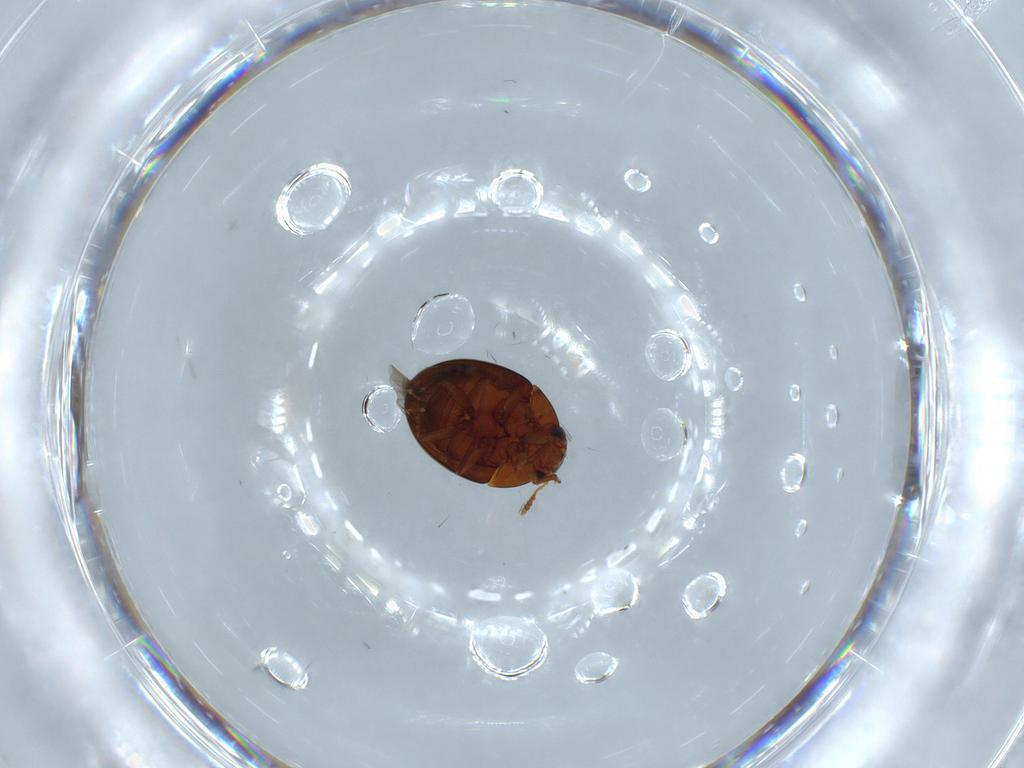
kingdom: Animalia
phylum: Arthropoda
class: Insecta
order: Coleoptera
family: Leiodidae
